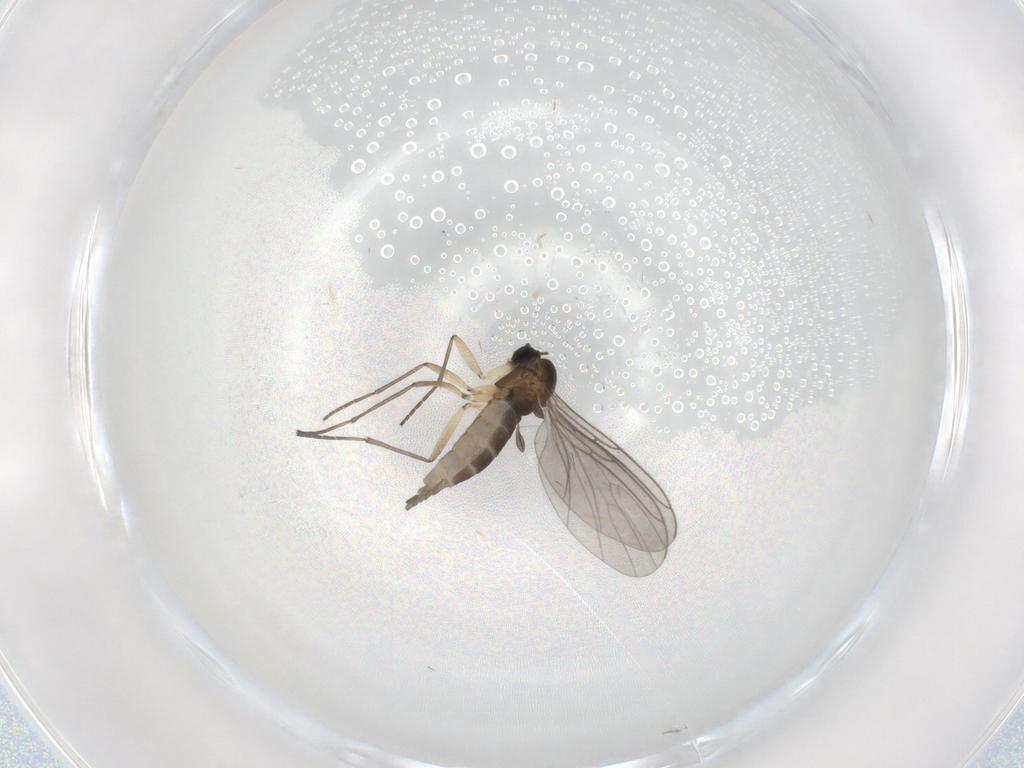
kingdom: Animalia
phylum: Arthropoda
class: Insecta
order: Diptera
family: Sciaridae
